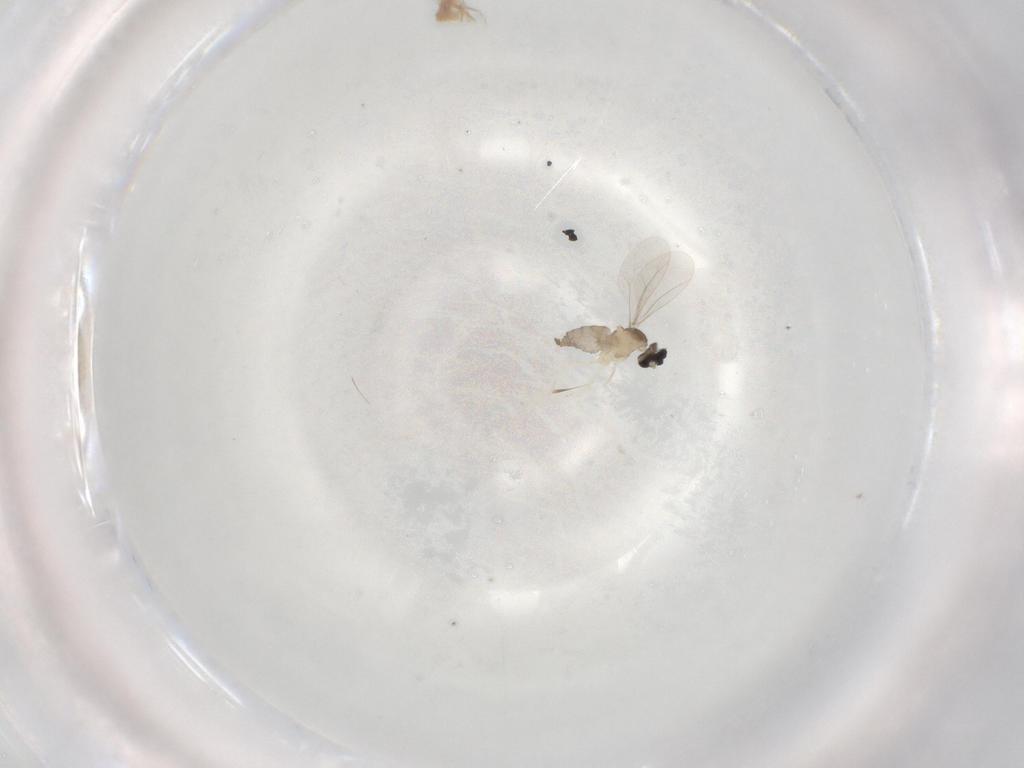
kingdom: Animalia
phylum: Arthropoda
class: Insecta
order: Diptera
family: Cecidomyiidae
